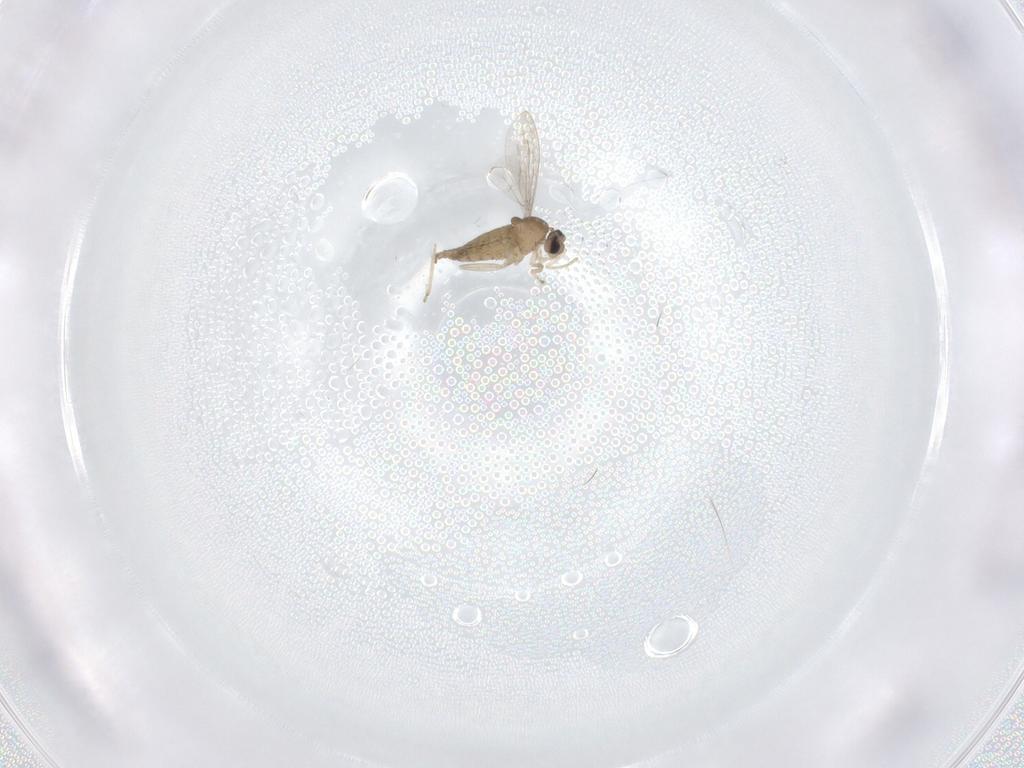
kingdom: Animalia
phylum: Arthropoda
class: Insecta
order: Diptera
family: Cecidomyiidae
